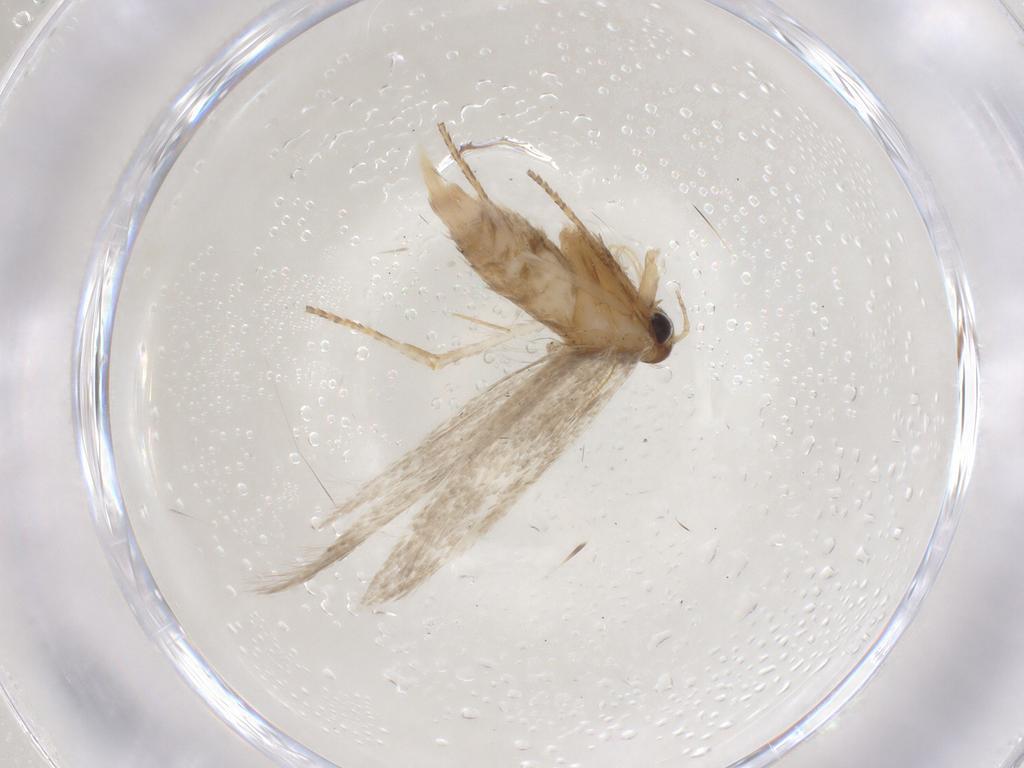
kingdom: Animalia
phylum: Arthropoda
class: Insecta
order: Lepidoptera
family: Coleophoridae
